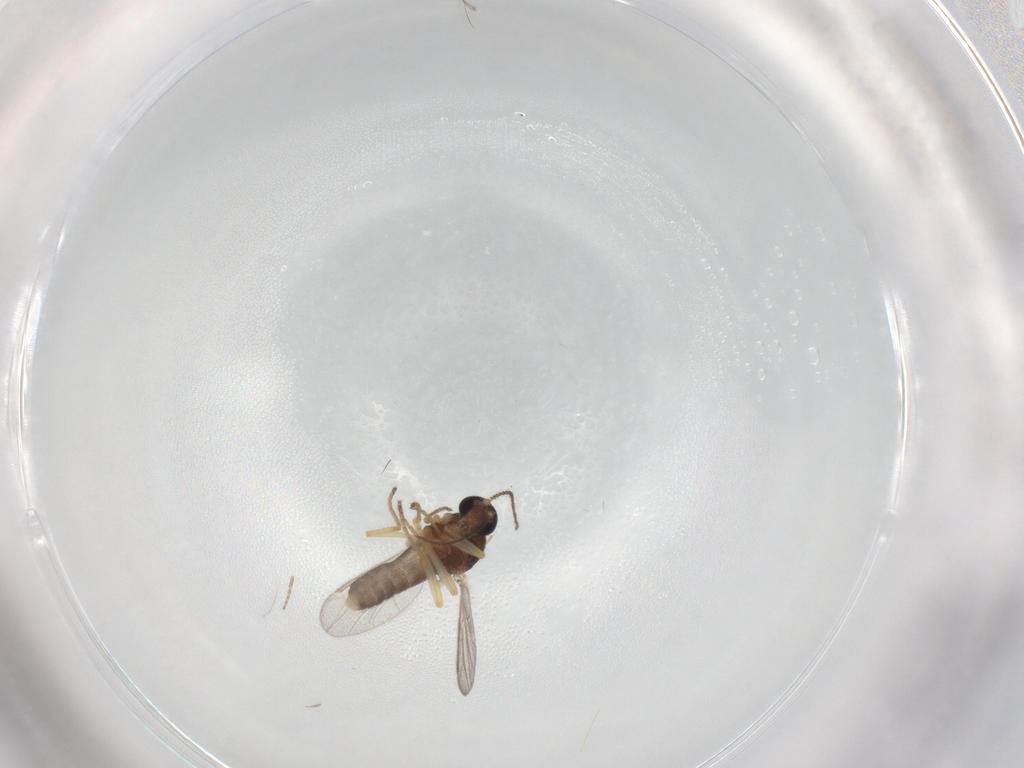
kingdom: Animalia
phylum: Arthropoda
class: Insecta
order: Diptera
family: Ceratopogonidae
